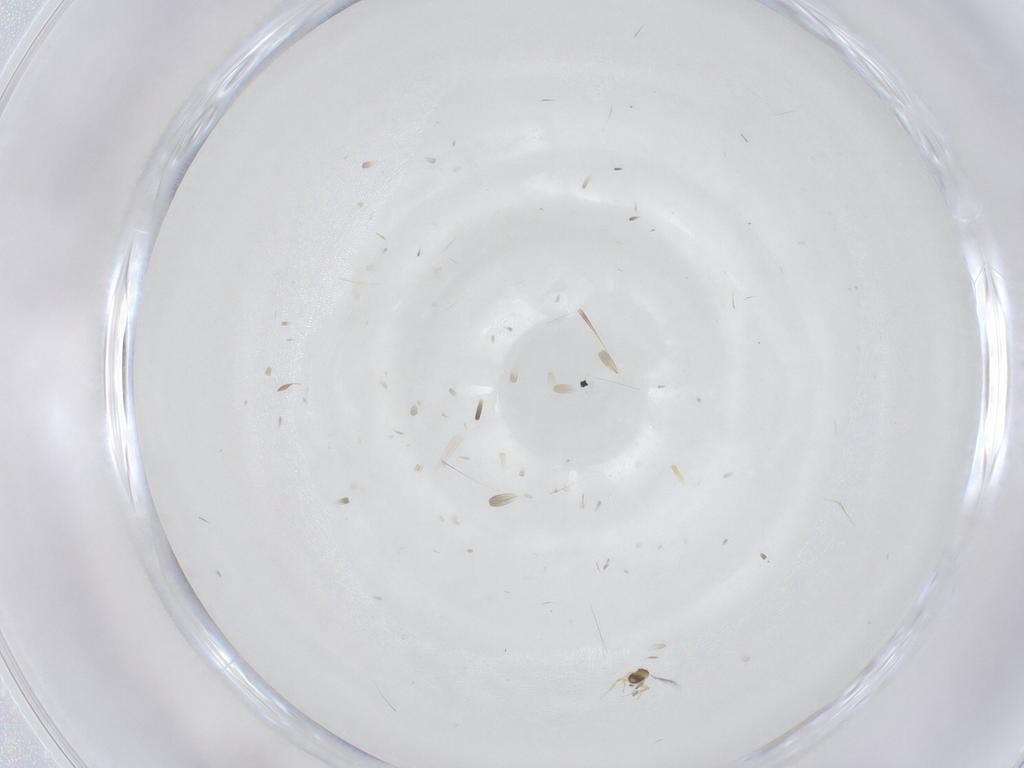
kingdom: Animalia
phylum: Arthropoda
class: Insecta
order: Hymenoptera
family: Mymaridae
